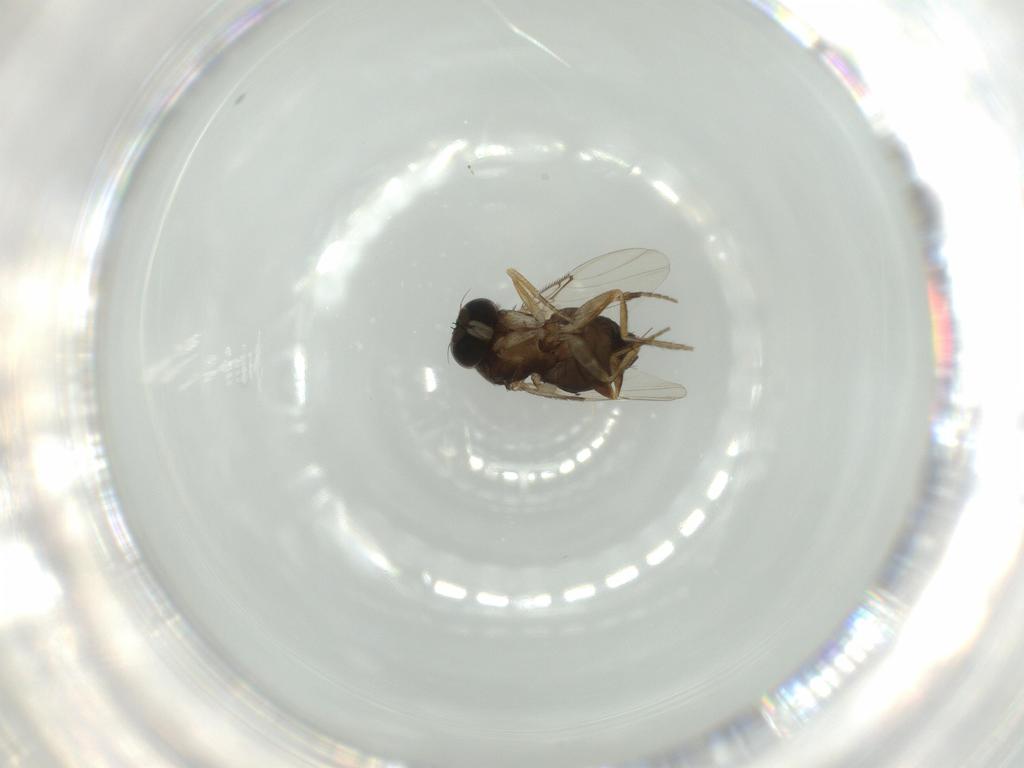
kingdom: Animalia
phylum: Arthropoda
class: Insecta
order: Diptera
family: Phoridae
